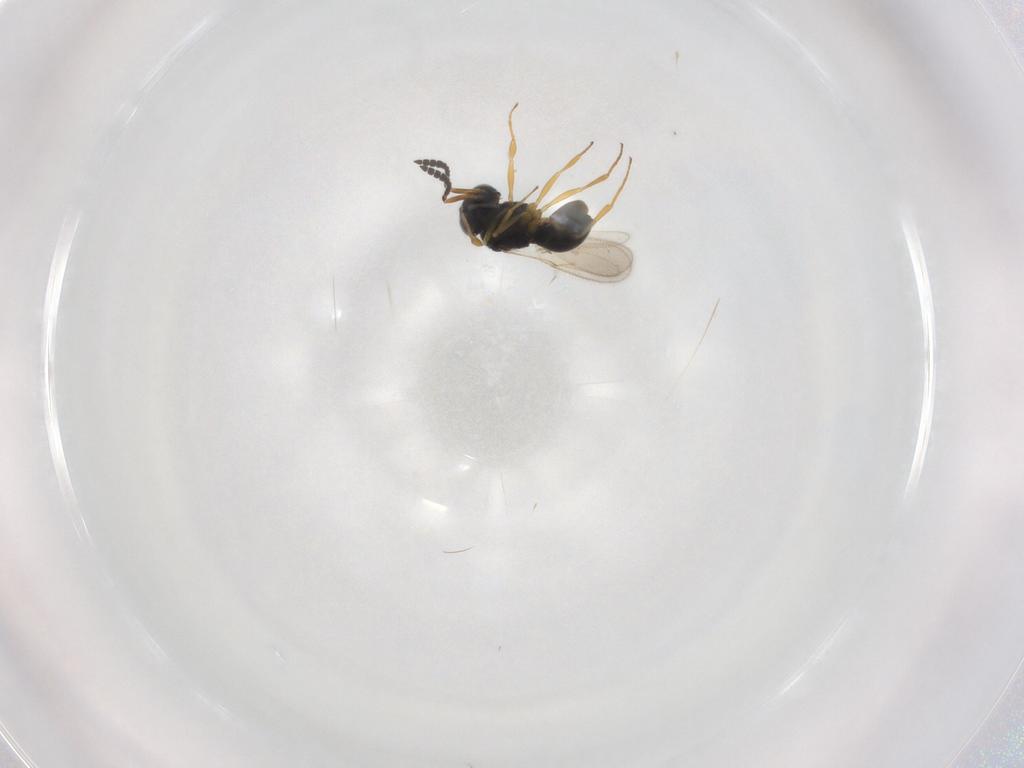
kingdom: Animalia
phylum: Arthropoda
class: Insecta
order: Hymenoptera
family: Scelionidae
